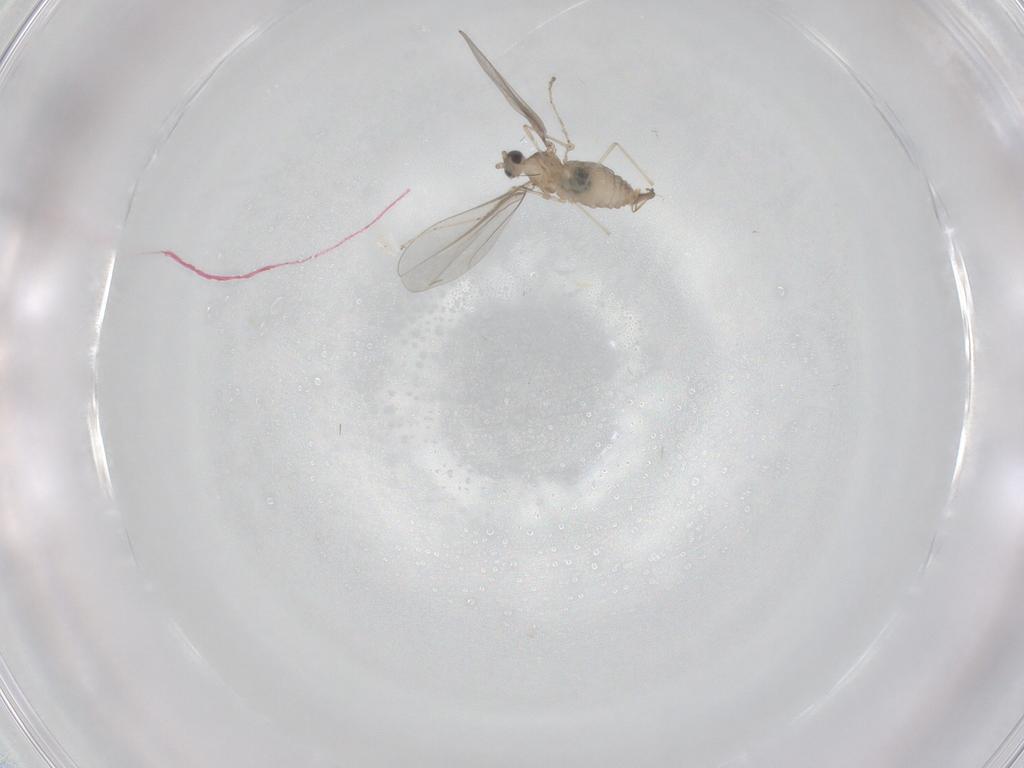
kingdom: Animalia
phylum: Arthropoda
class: Insecta
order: Diptera
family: Cecidomyiidae
